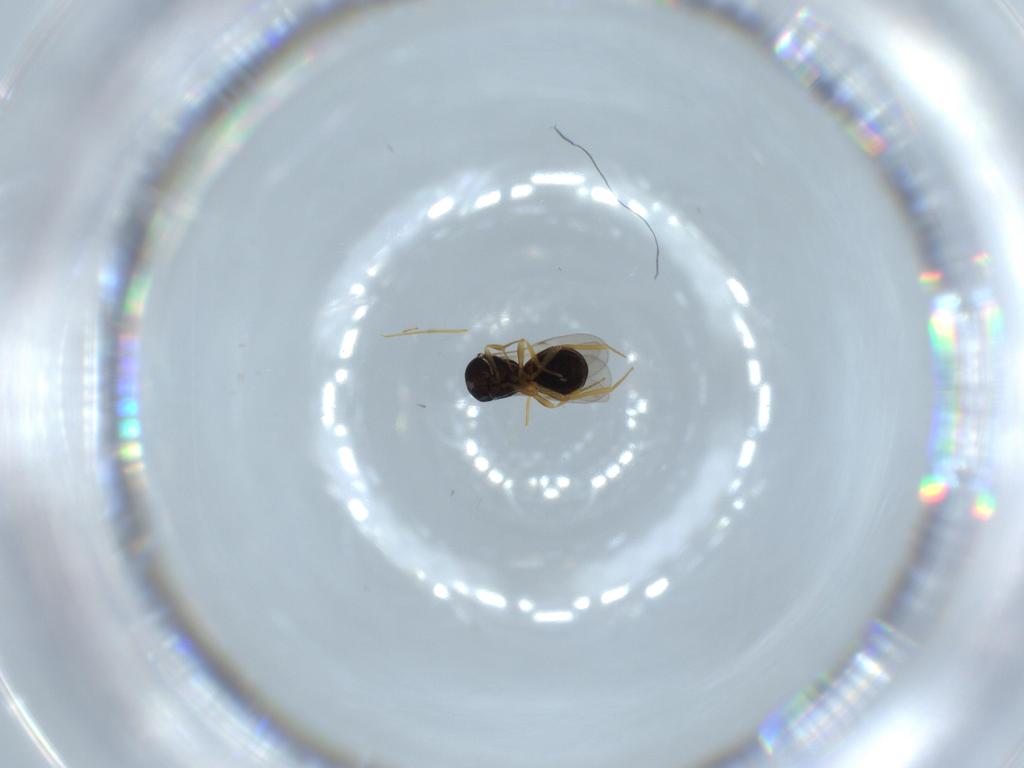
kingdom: Animalia
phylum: Arthropoda
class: Insecta
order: Hymenoptera
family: Scelionidae
